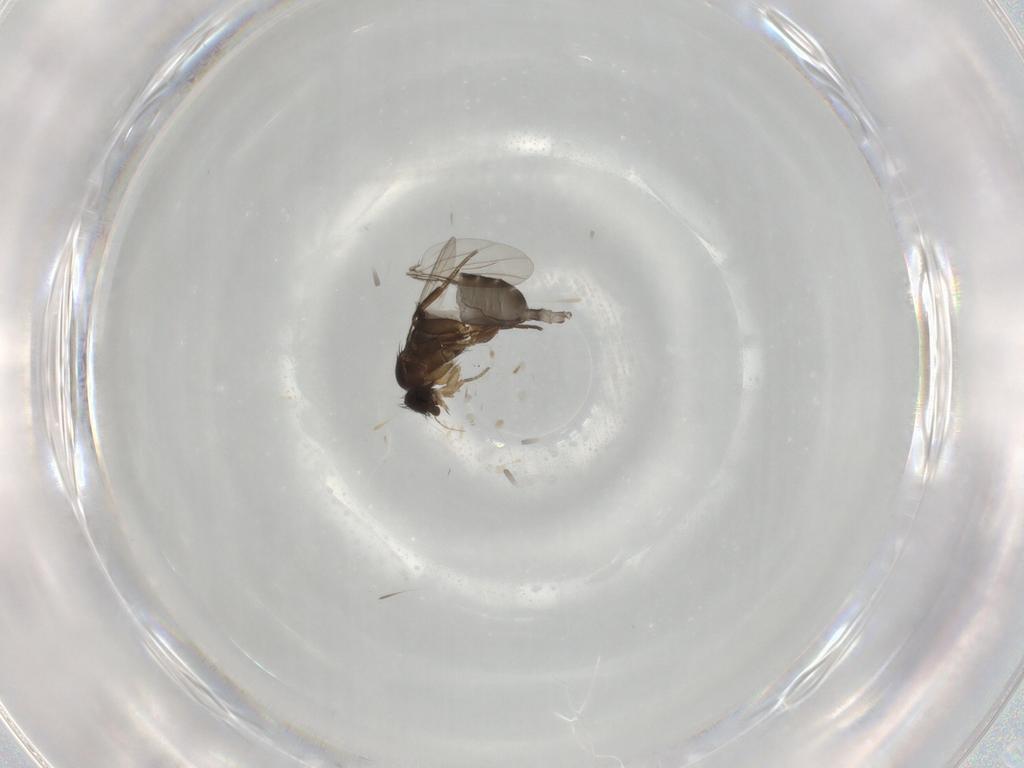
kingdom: Animalia
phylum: Arthropoda
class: Insecta
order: Diptera
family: Phoridae
